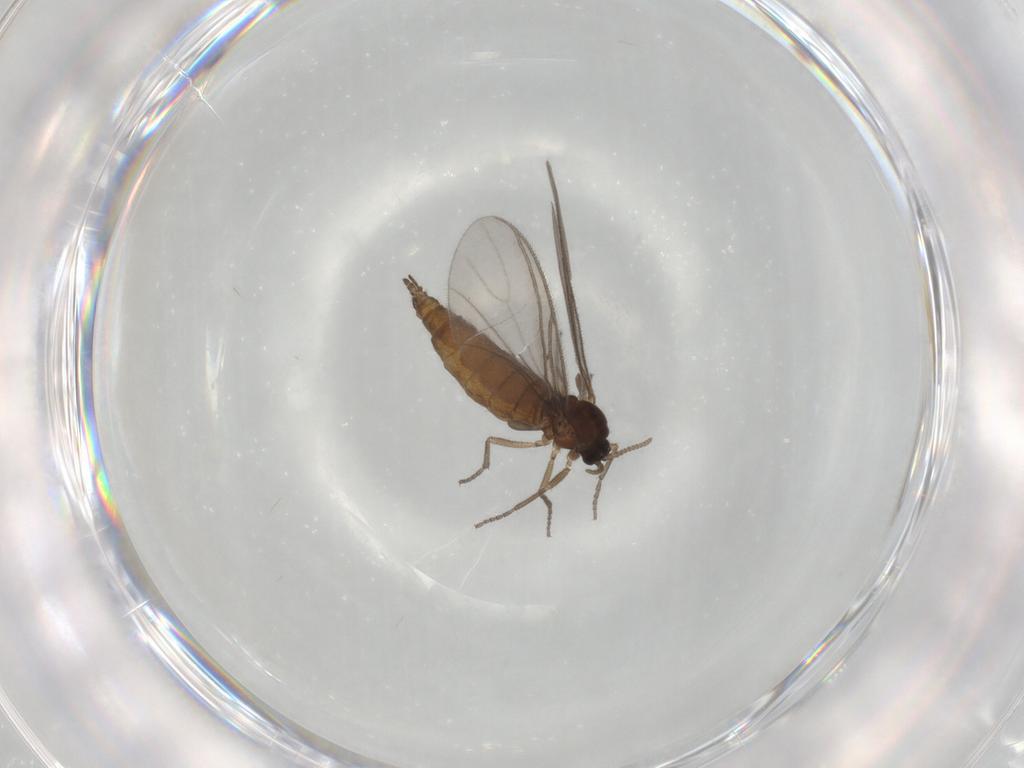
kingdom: Animalia
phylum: Arthropoda
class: Insecta
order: Diptera
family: Sciaridae
